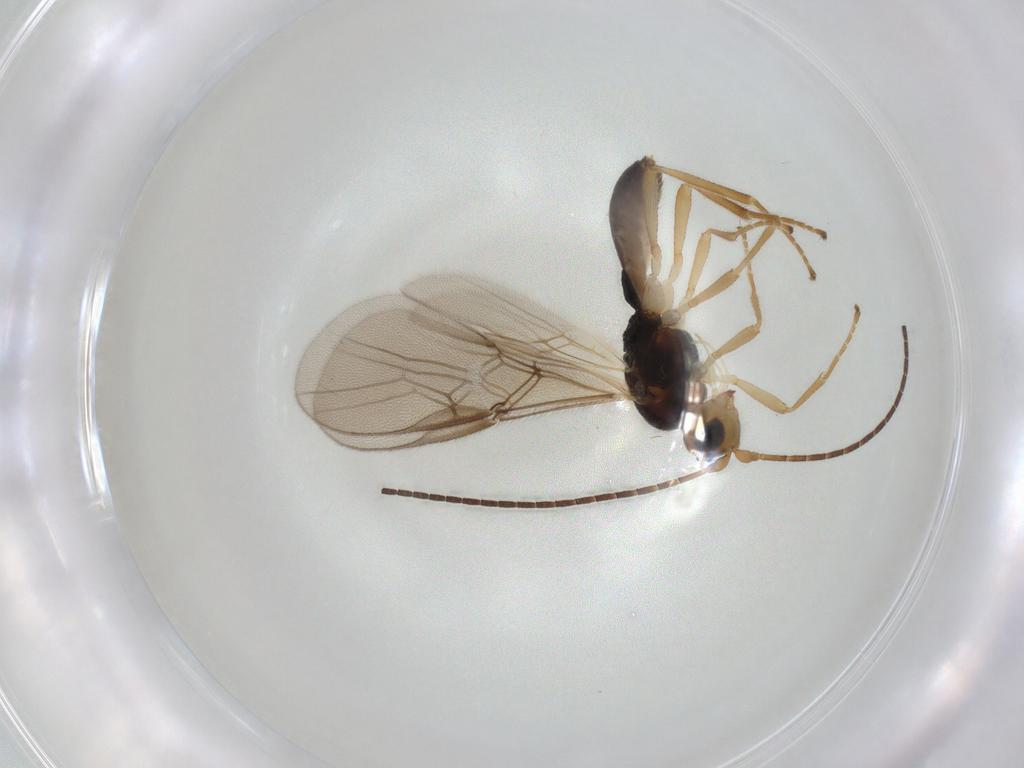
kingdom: Animalia
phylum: Arthropoda
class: Insecta
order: Hymenoptera
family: Braconidae
